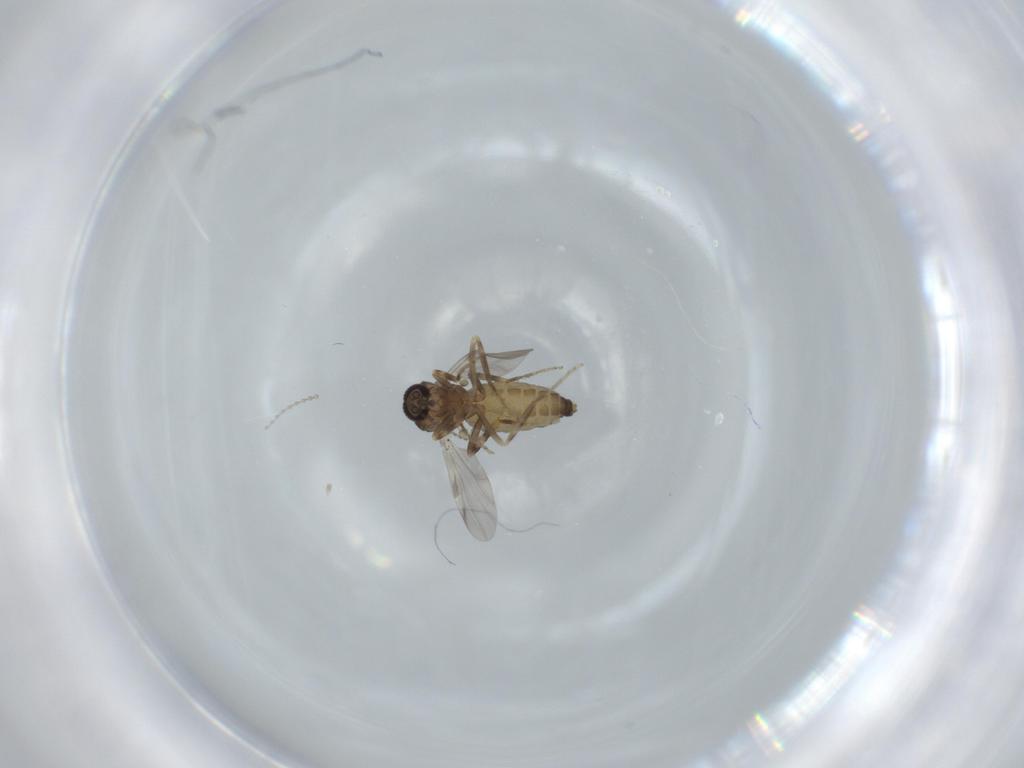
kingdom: Animalia
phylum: Arthropoda
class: Insecta
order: Diptera
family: Ceratopogonidae
